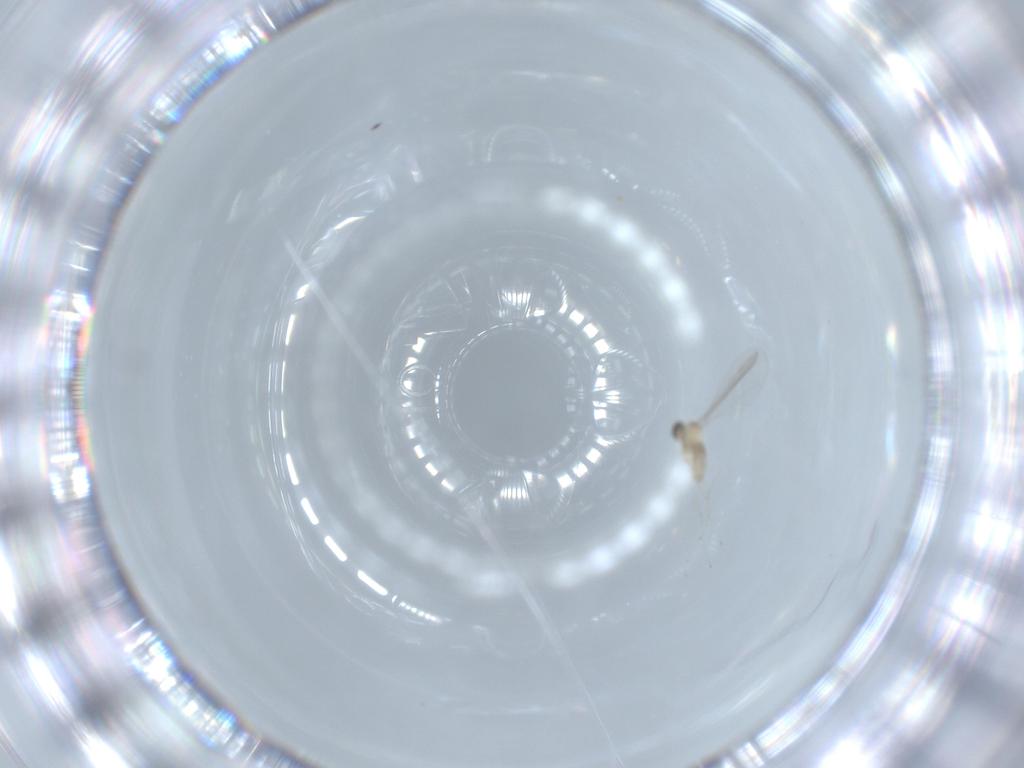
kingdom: Animalia
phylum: Arthropoda
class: Insecta
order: Diptera
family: Cecidomyiidae
